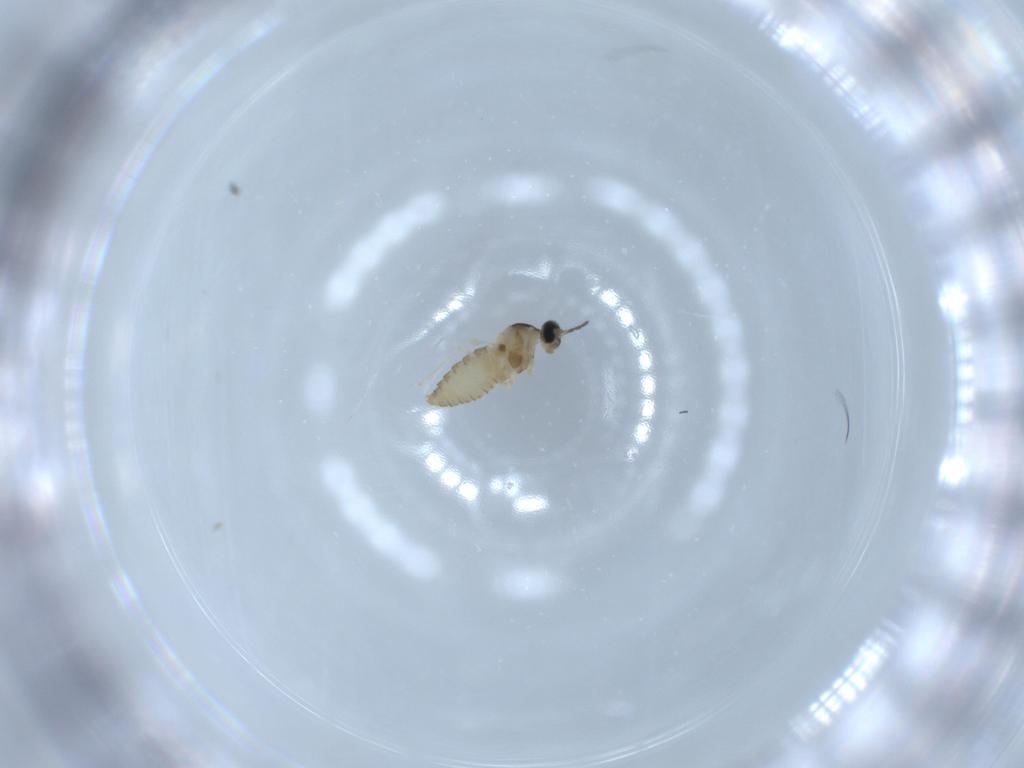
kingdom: Animalia
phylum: Arthropoda
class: Insecta
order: Diptera
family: Cecidomyiidae
